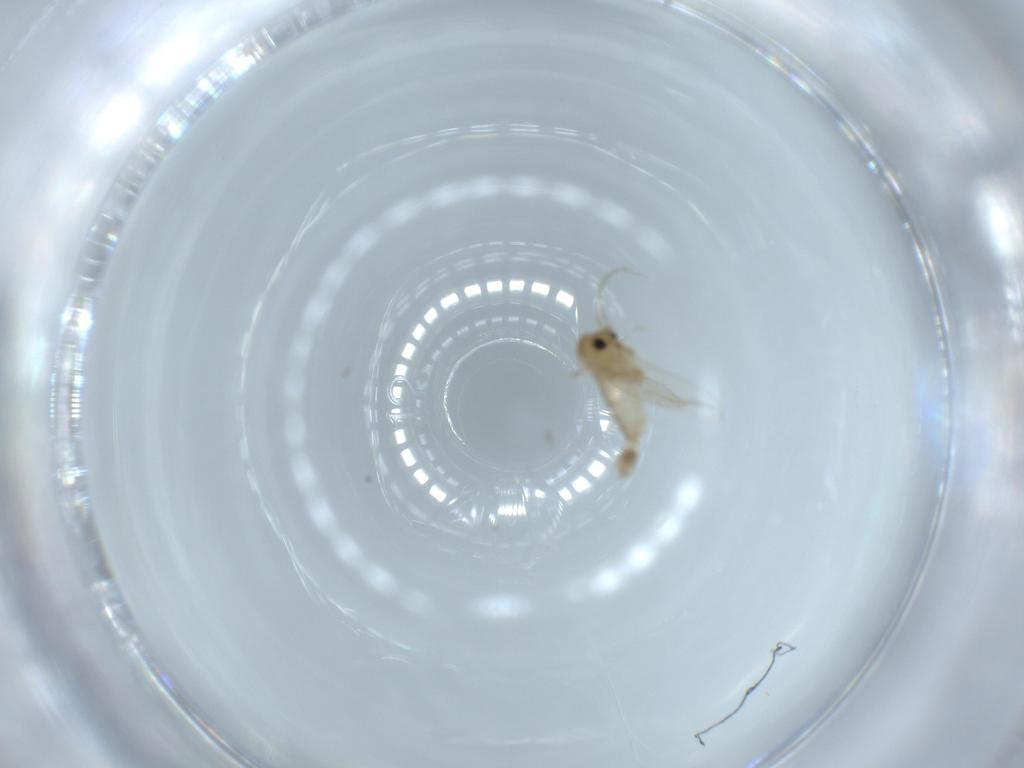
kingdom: Animalia
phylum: Arthropoda
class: Insecta
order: Diptera
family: Psychodidae
